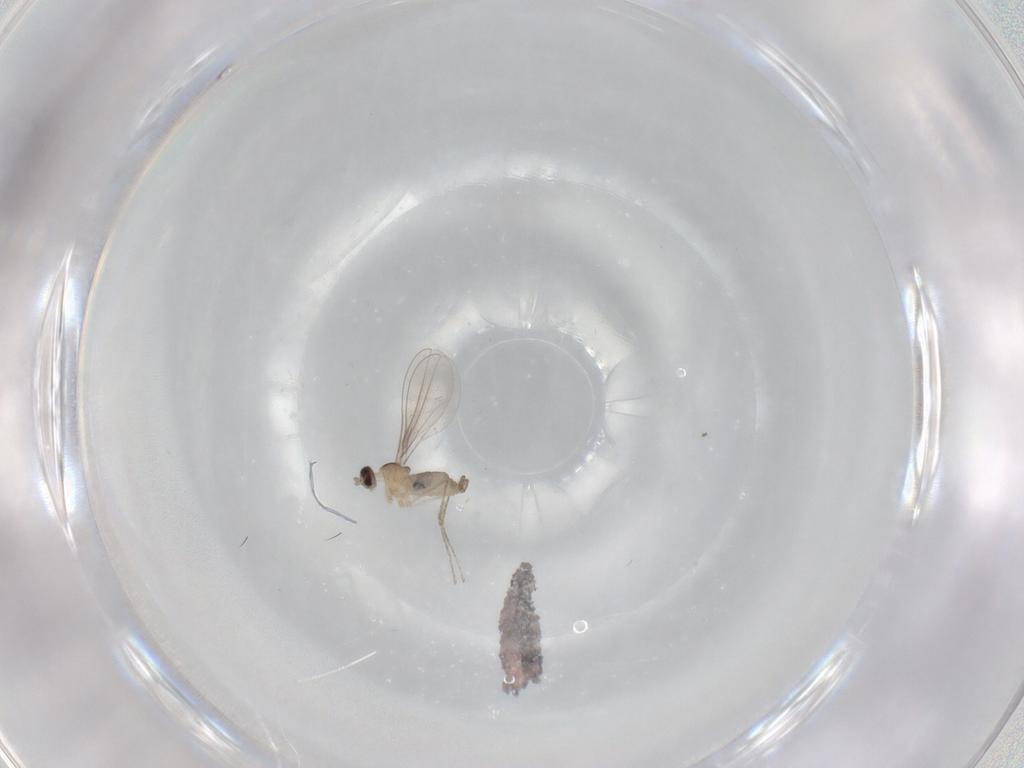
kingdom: Animalia
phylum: Arthropoda
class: Insecta
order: Diptera
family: Cecidomyiidae
